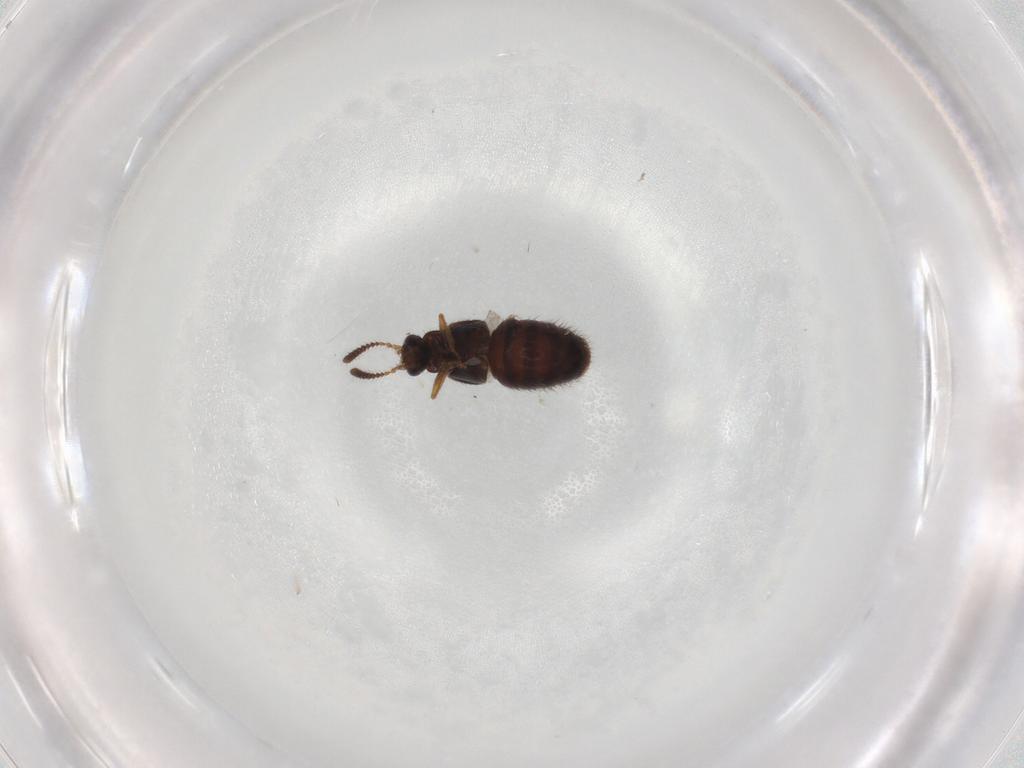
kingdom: Animalia
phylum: Arthropoda
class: Insecta
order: Coleoptera
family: Staphylinidae
